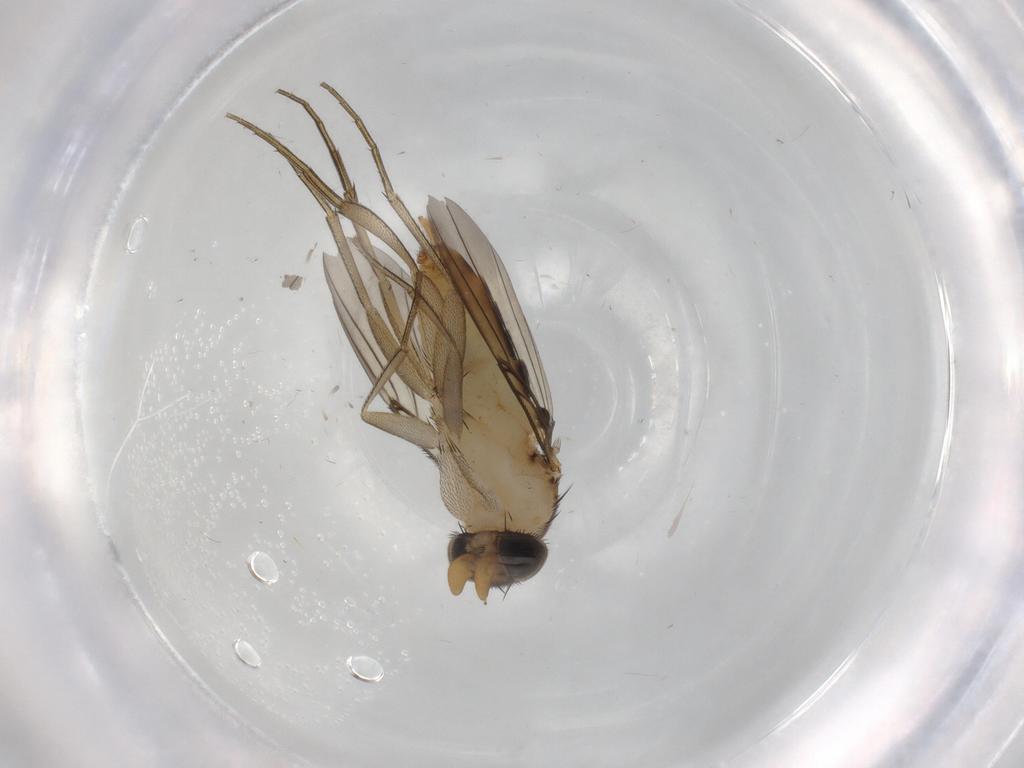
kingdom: Animalia
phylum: Arthropoda
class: Insecta
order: Diptera
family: Phoridae
